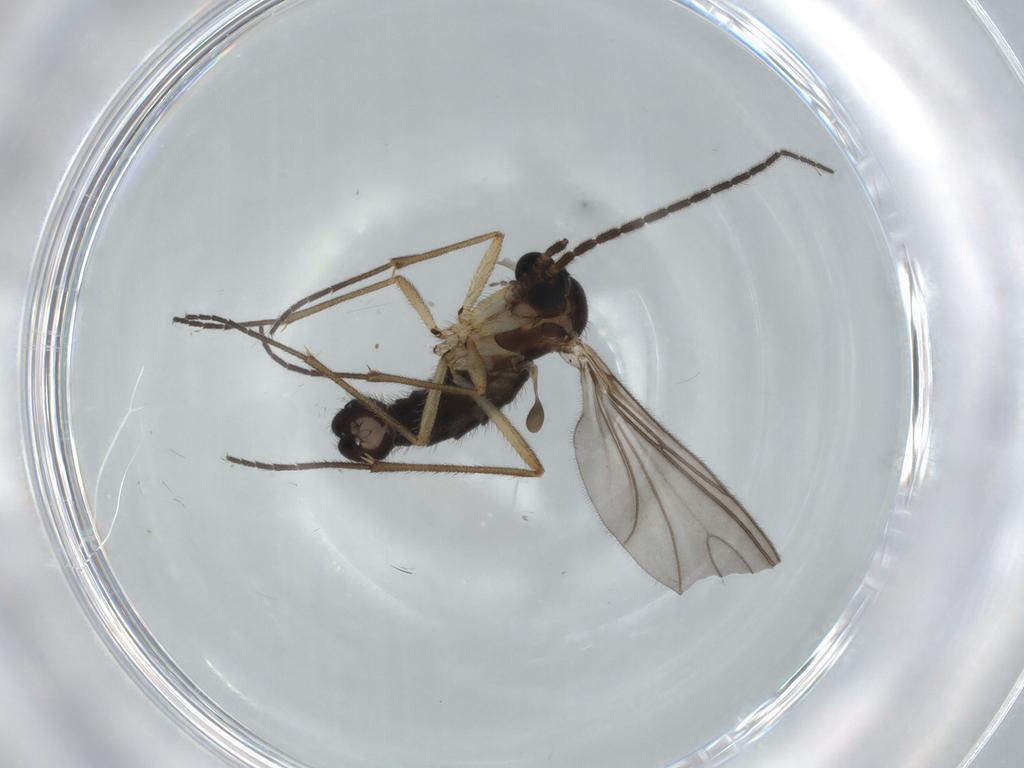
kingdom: Animalia
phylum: Arthropoda
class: Insecta
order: Diptera
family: Sciaridae
